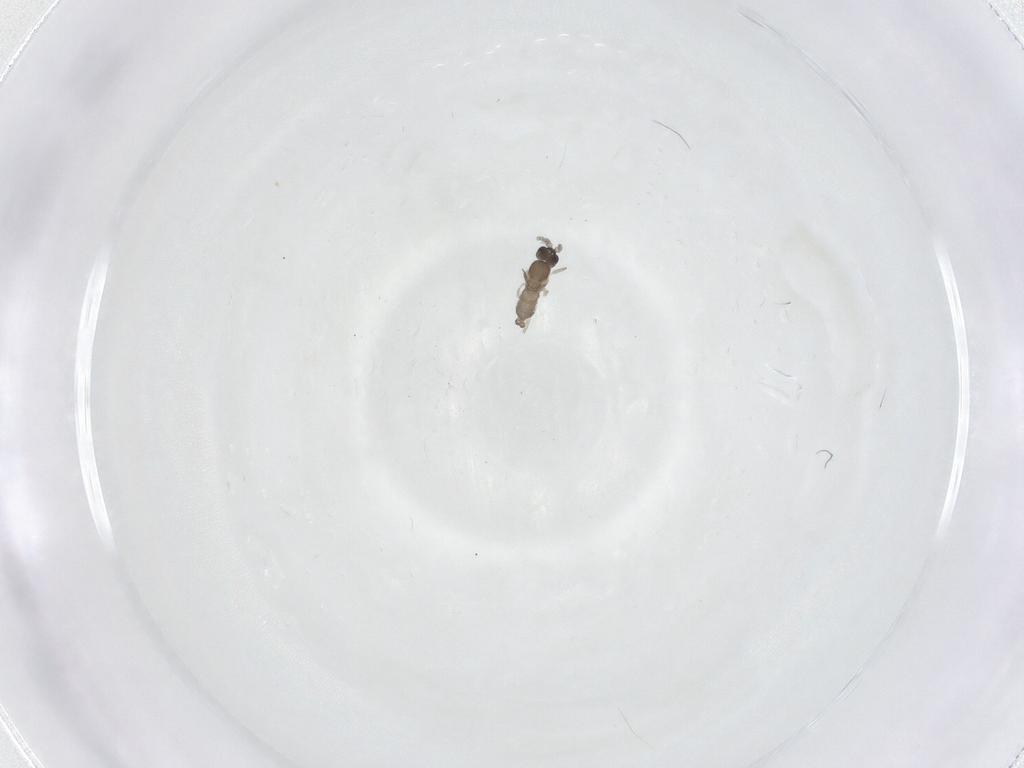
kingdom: Animalia
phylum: Arthropoda
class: Insecta
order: Diptera
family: Cecidomyiidae
